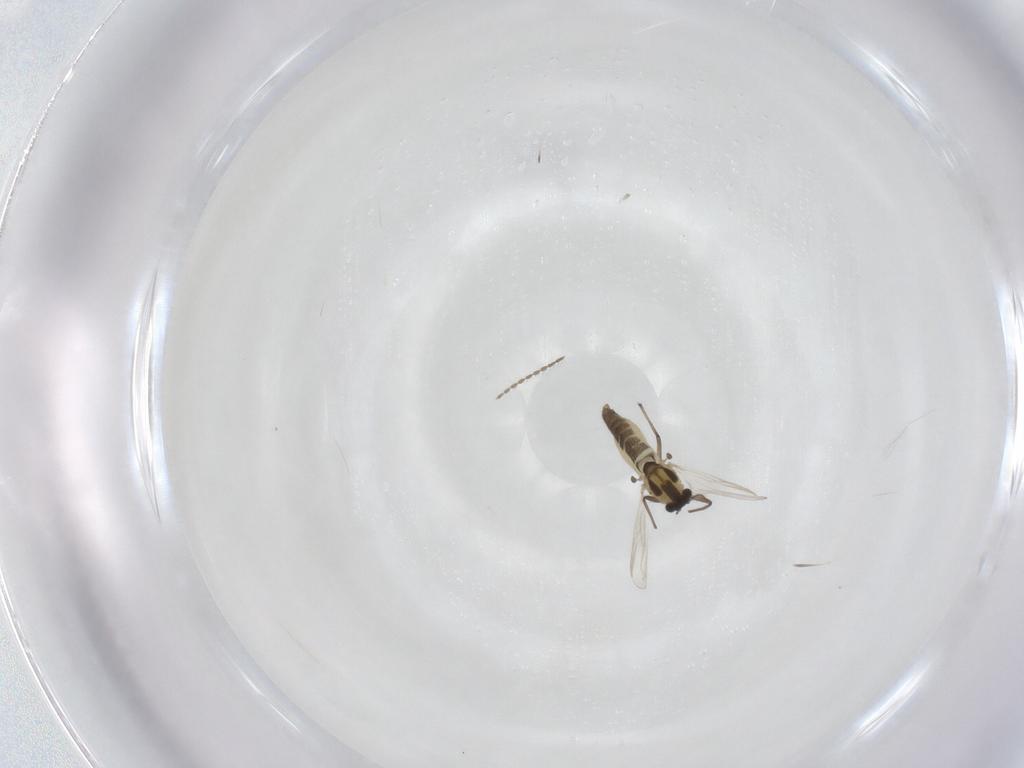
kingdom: Animalia
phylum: Arthropoda
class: Insecta
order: Diptera
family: Chironomidae
